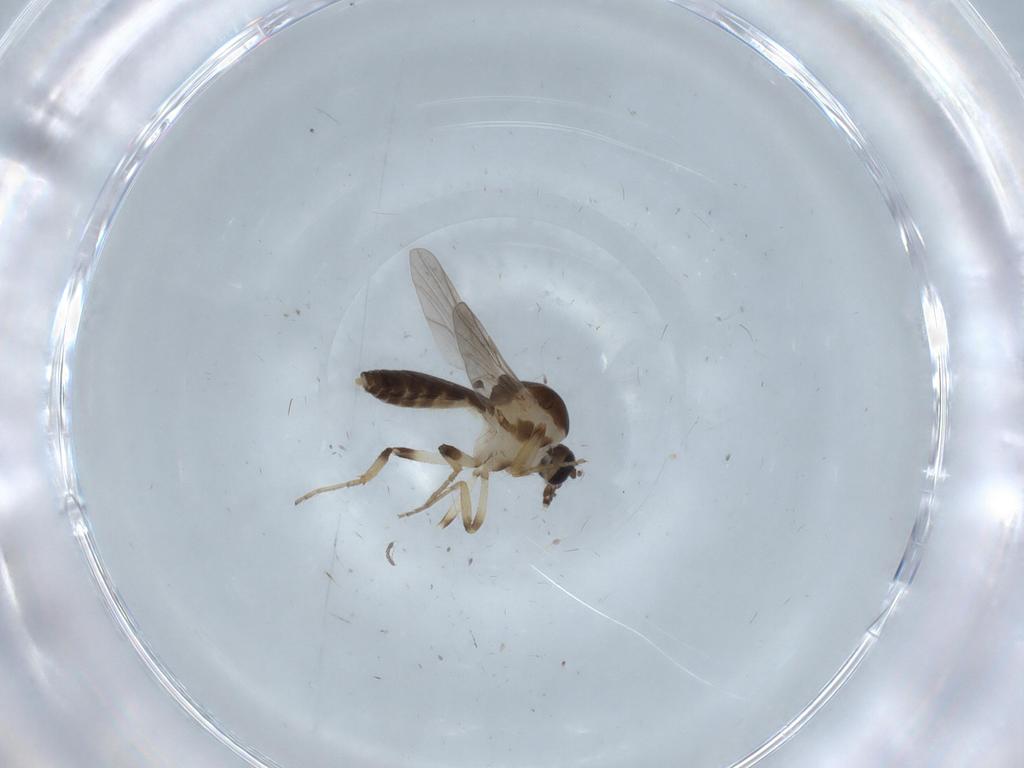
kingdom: Animalia
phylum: Arthropoda
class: Insecta
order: Diptera
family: Ceratopogonidae
